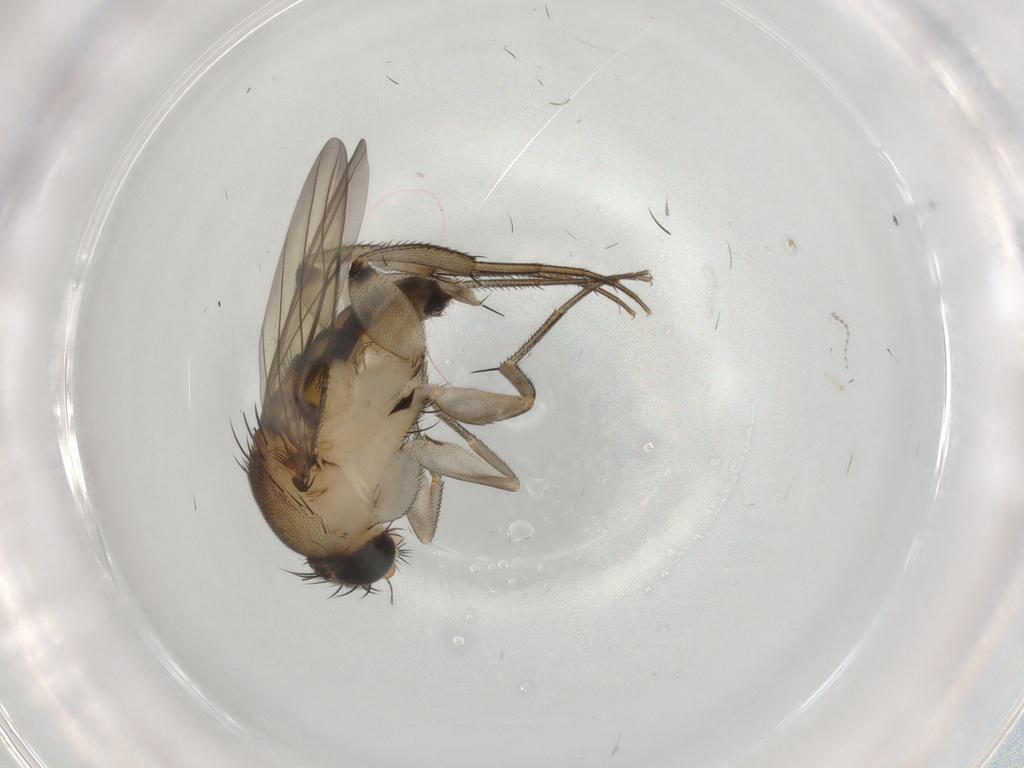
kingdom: Animalia
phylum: Arthropoda
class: Insecta
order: Diptera
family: Cecidomyiidae
